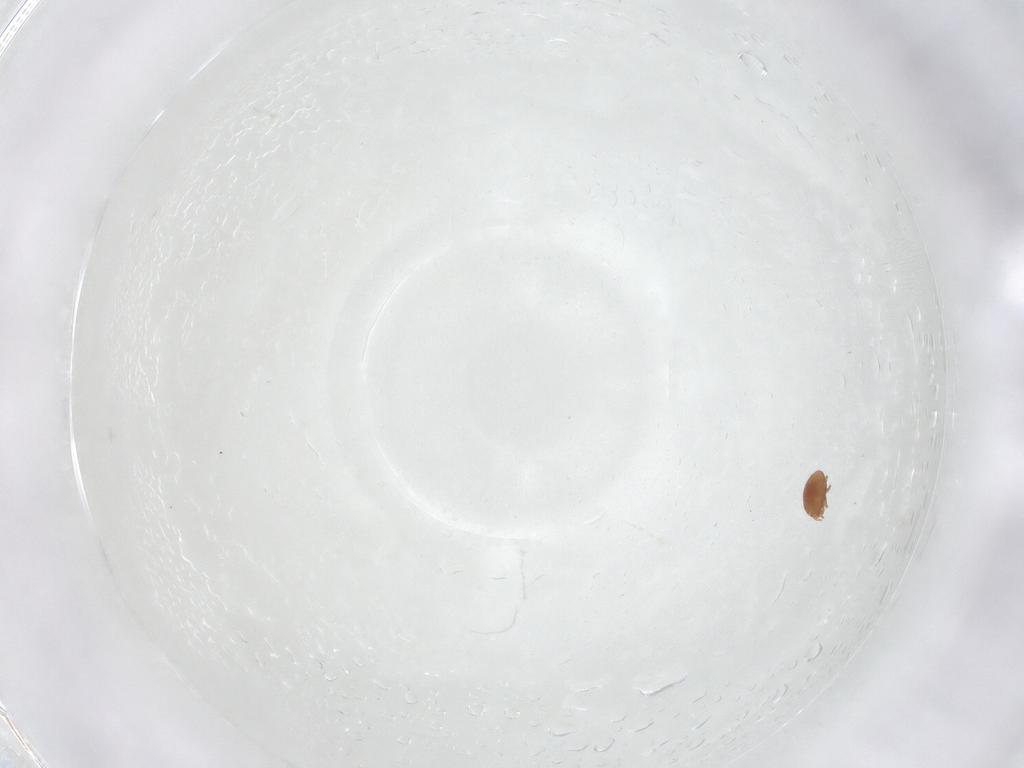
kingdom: Animalia
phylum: Arthropoda
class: Arachnida
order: Mesostigmata
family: Trematuridae
